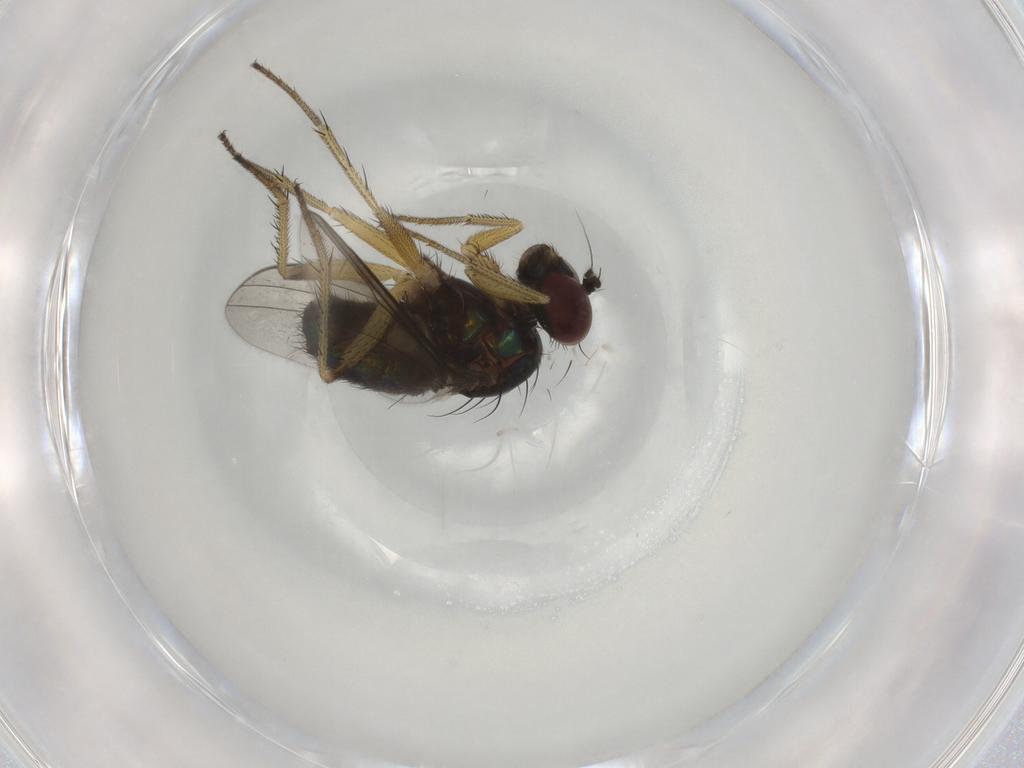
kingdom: Animalia
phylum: Arthropoda
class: Insecta
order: Diptera
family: Dolichopodidae
